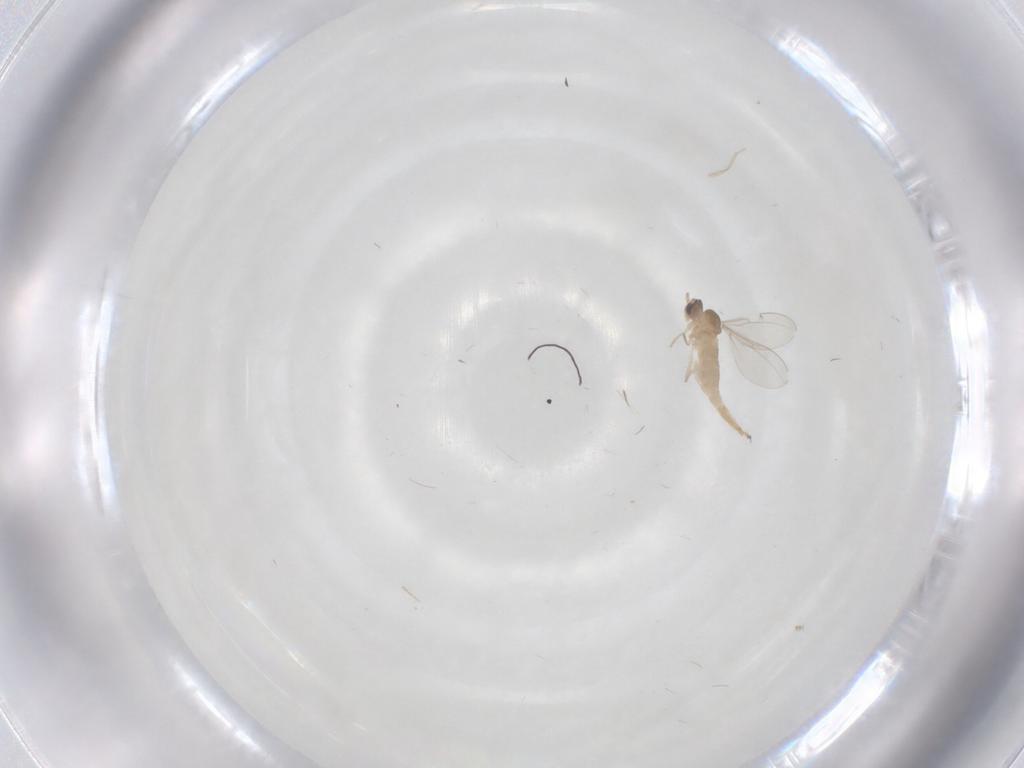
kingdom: Animalia
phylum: Arthropoda
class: Insecta
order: Diptera
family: Cecidomyiidae
